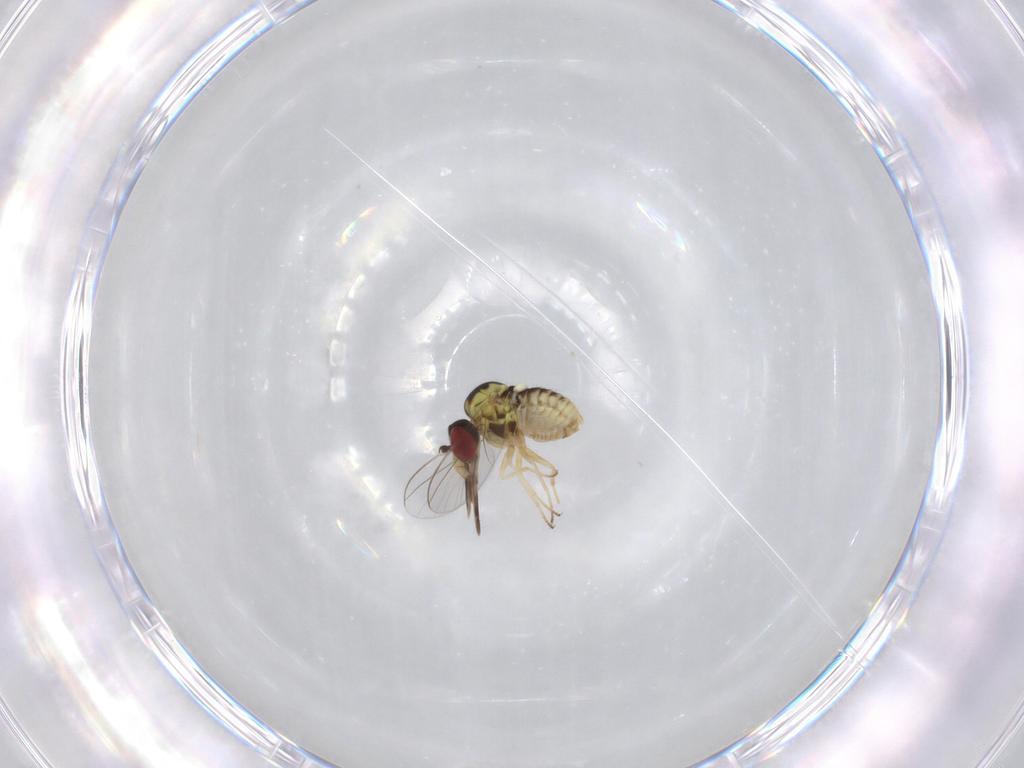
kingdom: Animalia
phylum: Arthropoda
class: Insecta
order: Diptera
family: Bombyliidae
